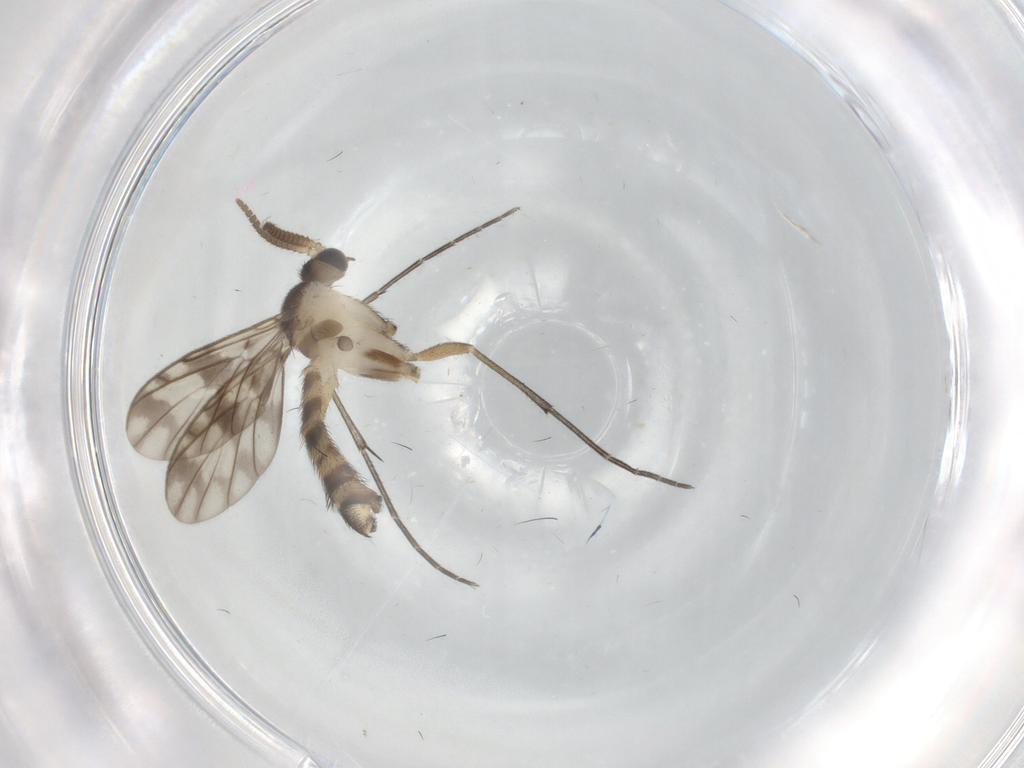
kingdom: Animalia
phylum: Arthropoda
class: Insecta
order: Diptera
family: Keroplatidae
